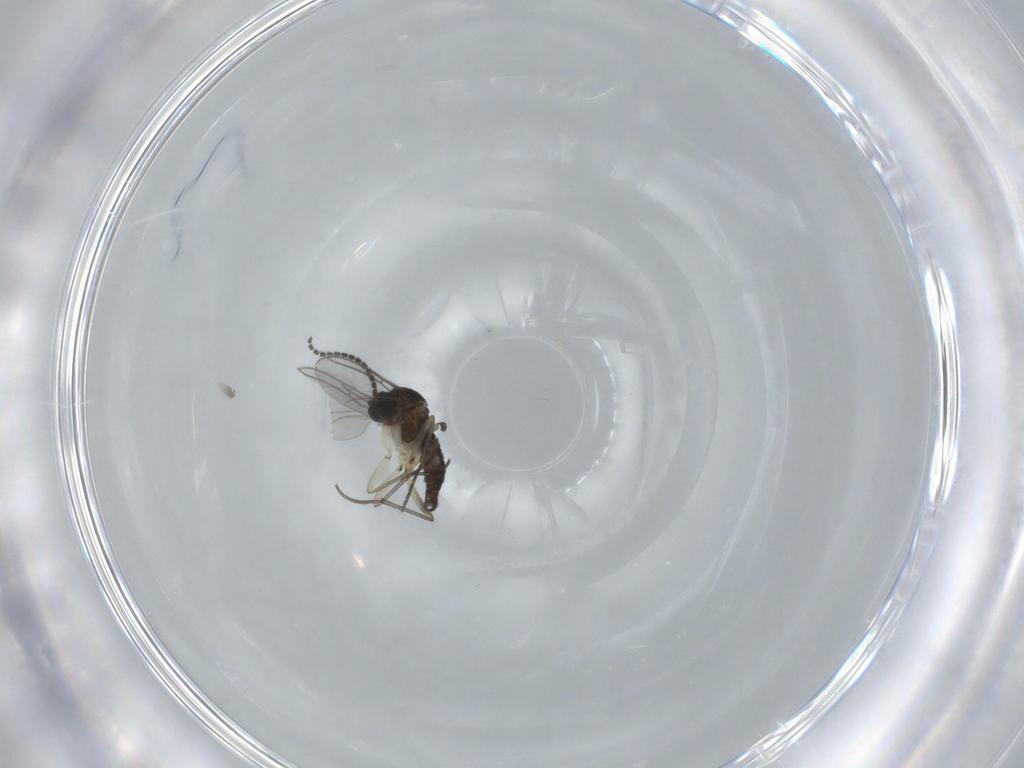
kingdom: Animalia
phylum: Arthropoda
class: Insecta
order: Diptera
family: Sciaridae
